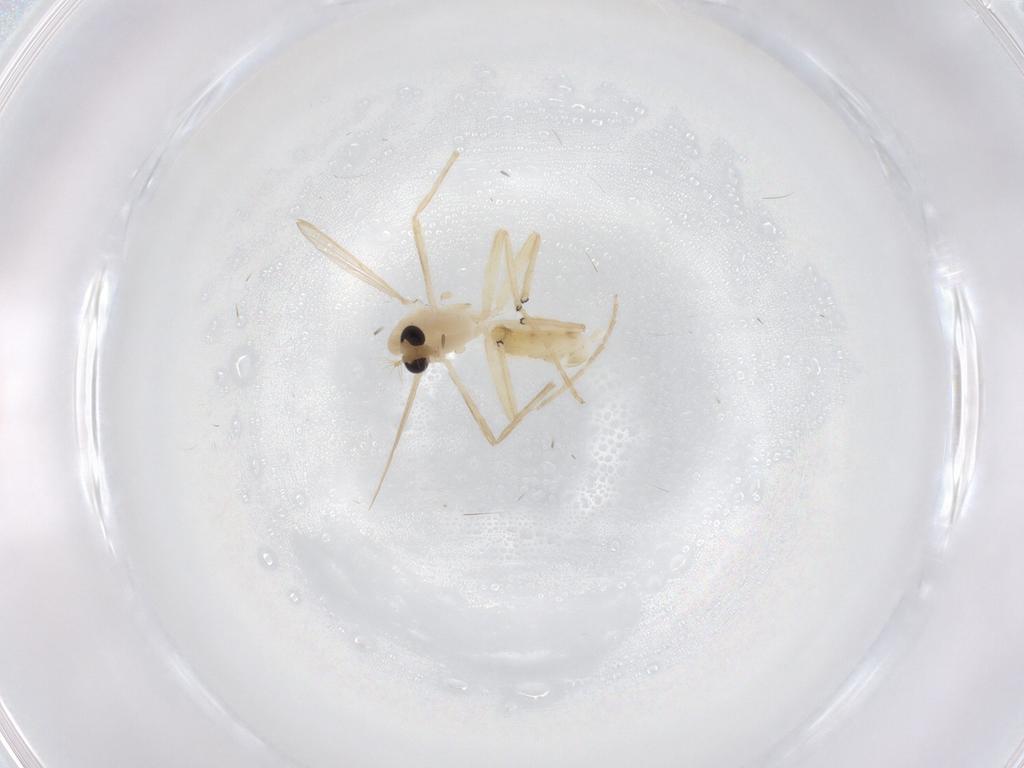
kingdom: Animalia
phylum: Arthropoda
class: Insecta
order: Diptera
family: Chironomidae
